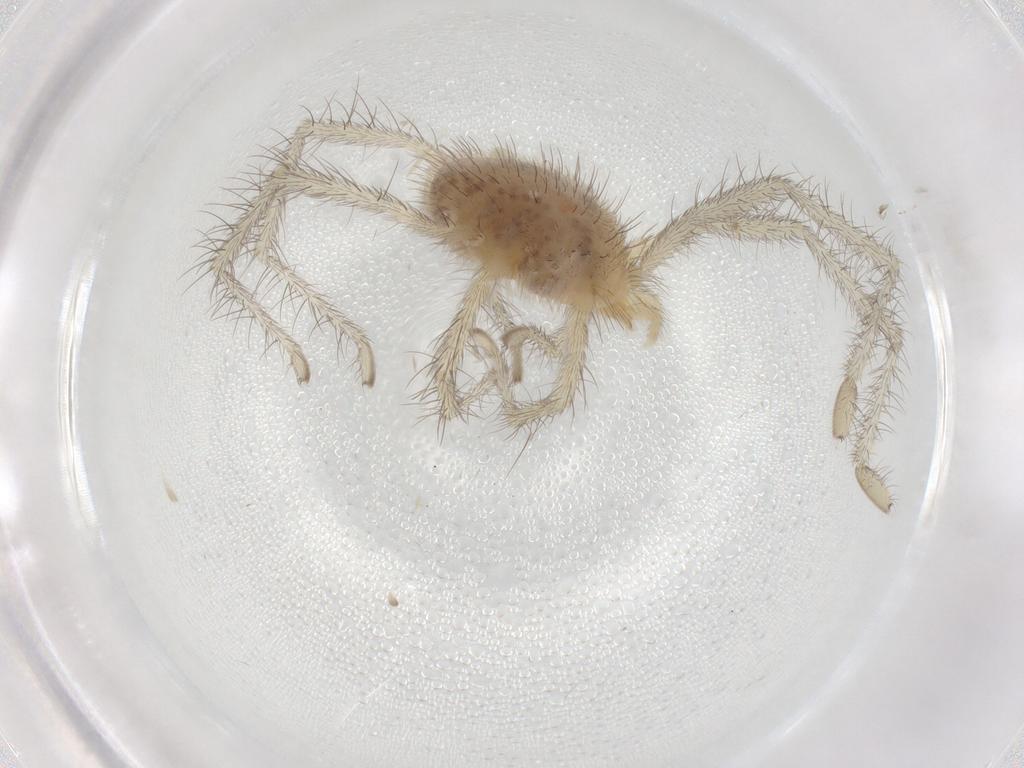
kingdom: Animalia
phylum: Arthropoda
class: Arachnida
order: Trombidiformes
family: Erythraeidae
